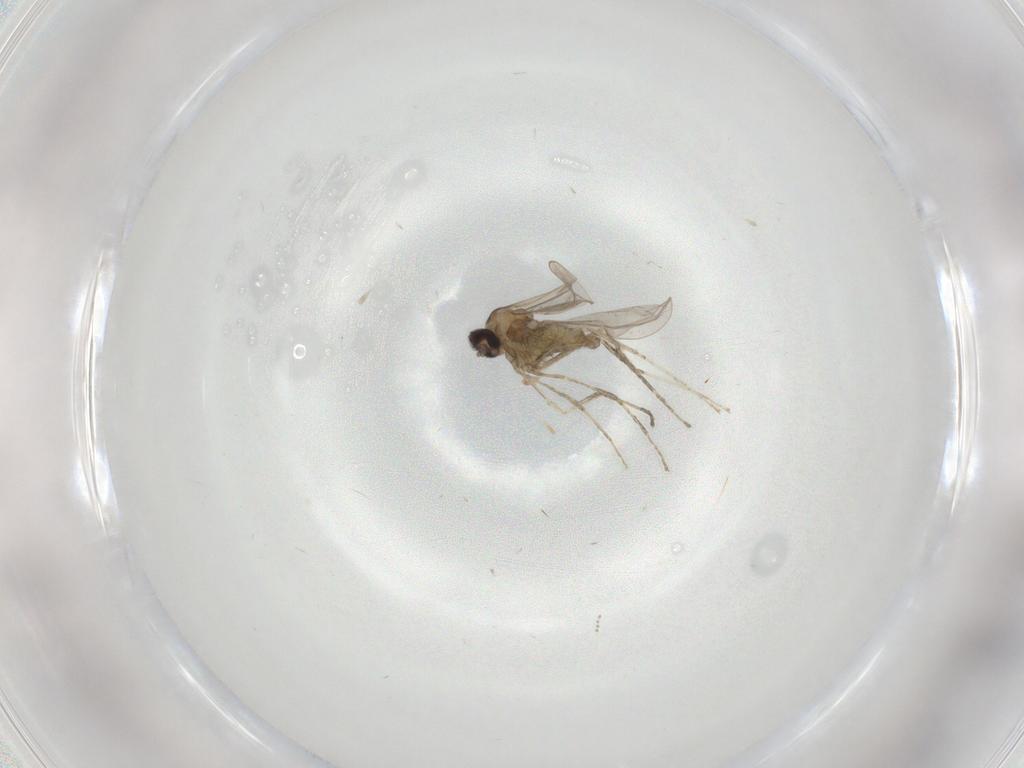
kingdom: Animalia
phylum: Arthropoda
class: Insecta
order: Diptera
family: Cecidomyiidae
